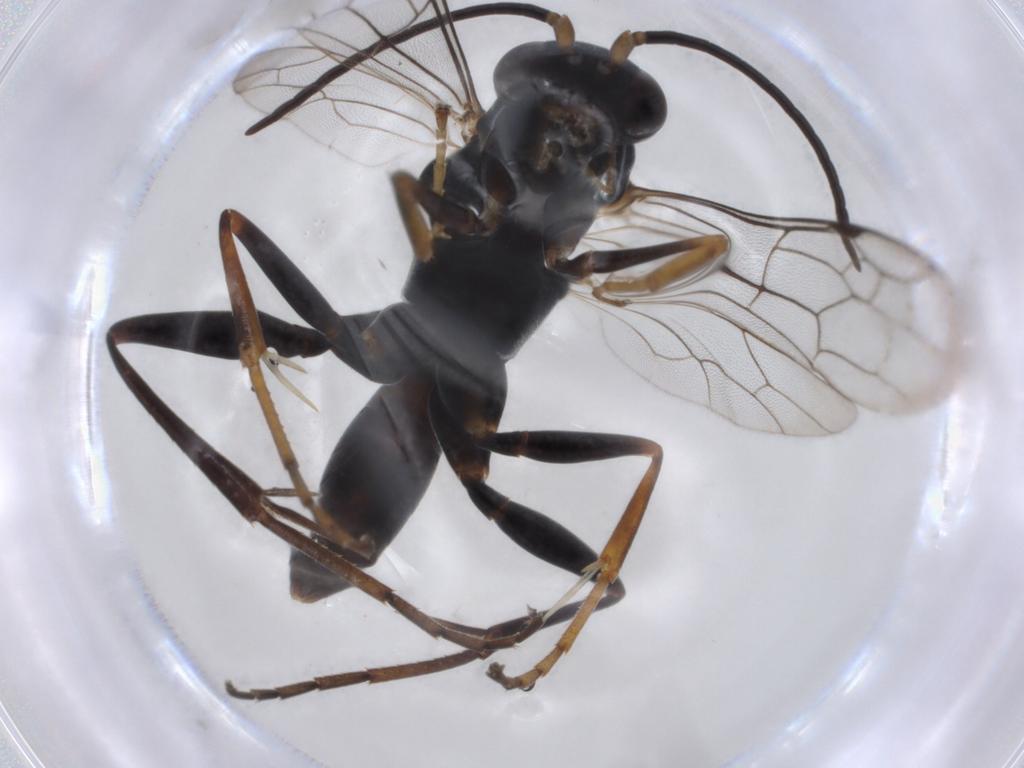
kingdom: Animalia
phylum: Arthropoda
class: Insecta
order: Hymenoptera
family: Diapriidae
